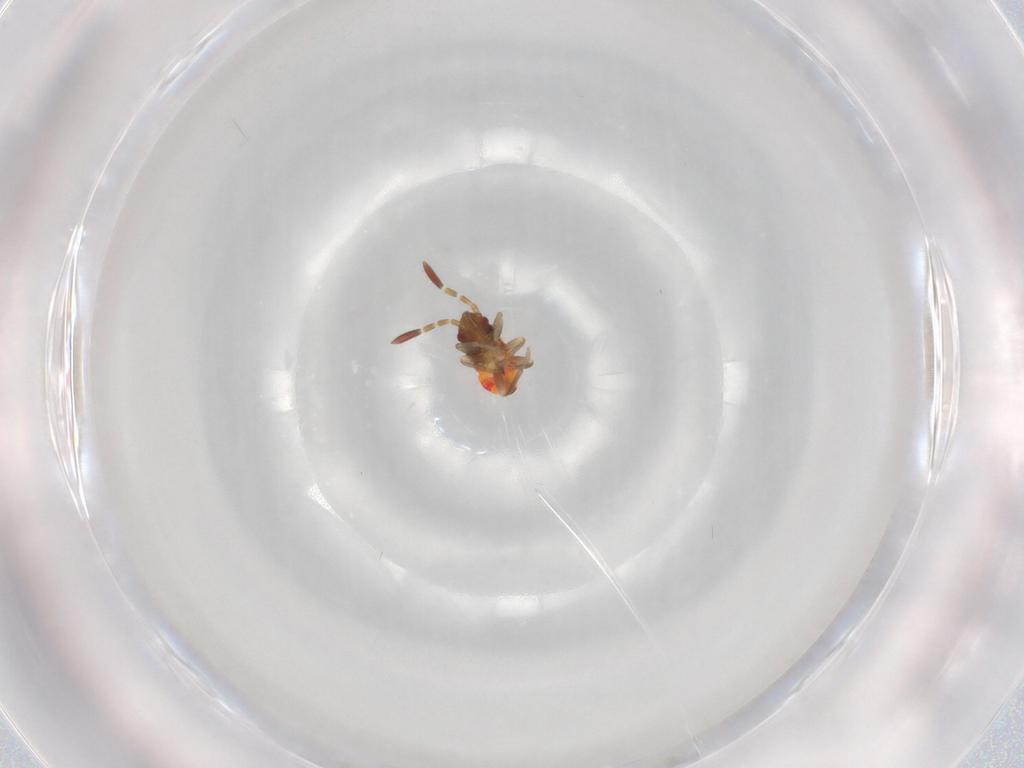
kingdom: Animalia
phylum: Arthropoda
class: Insecta
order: Hemiptera
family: Rhyparochromidae
